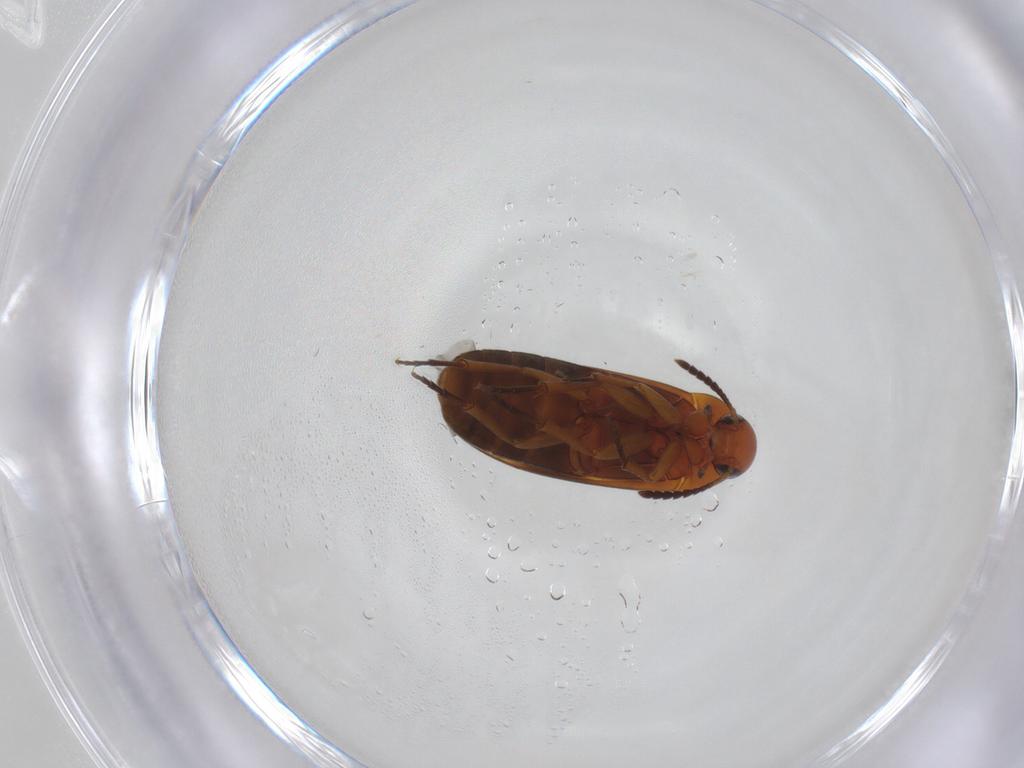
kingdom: Animalia
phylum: Arthropoda
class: Insecta
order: Coleoptera
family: Scraptiidae
